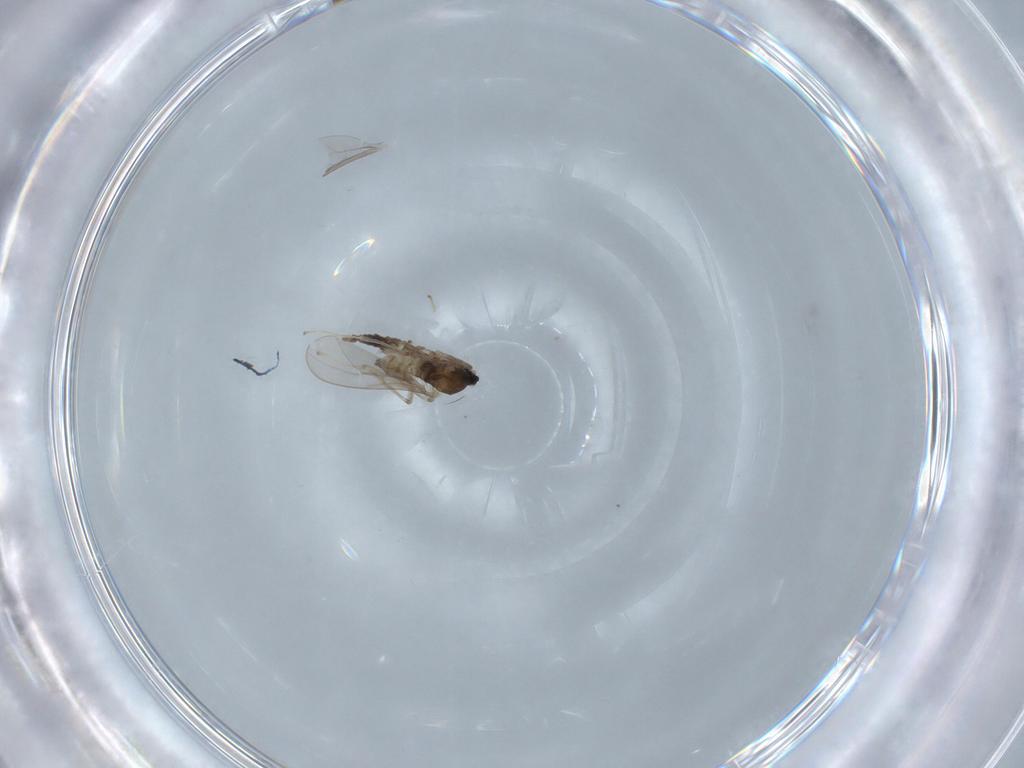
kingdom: Animalia
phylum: Arthropoda
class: Insecta
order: Diptera
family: Cecidomyiidae
